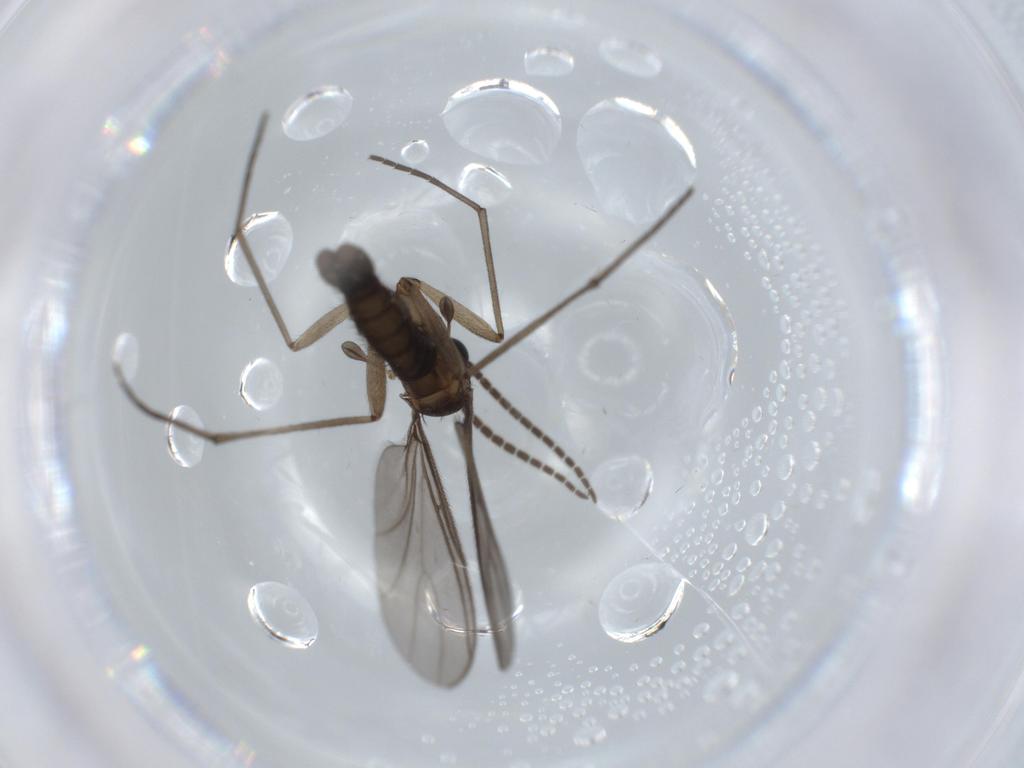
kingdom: Animalia
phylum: Arthropoda
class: Insecta
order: Diptera
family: Sciaridae
